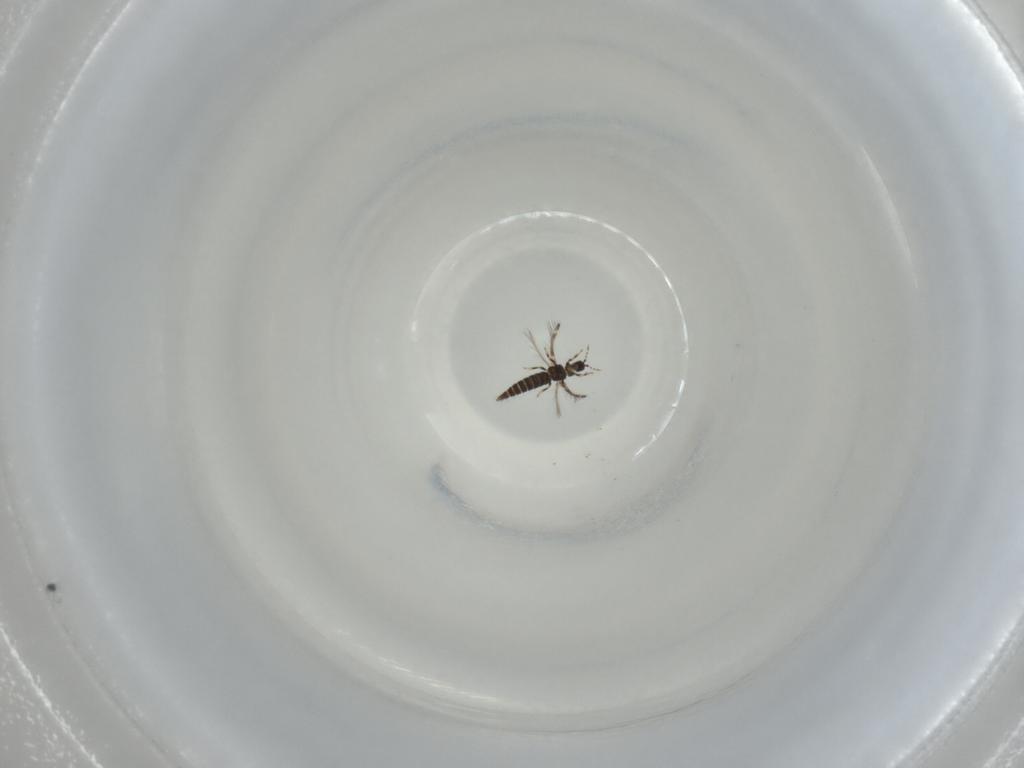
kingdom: Animalia
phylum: Arthropoda
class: Insecta
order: Thysanoptera
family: Thripidae
